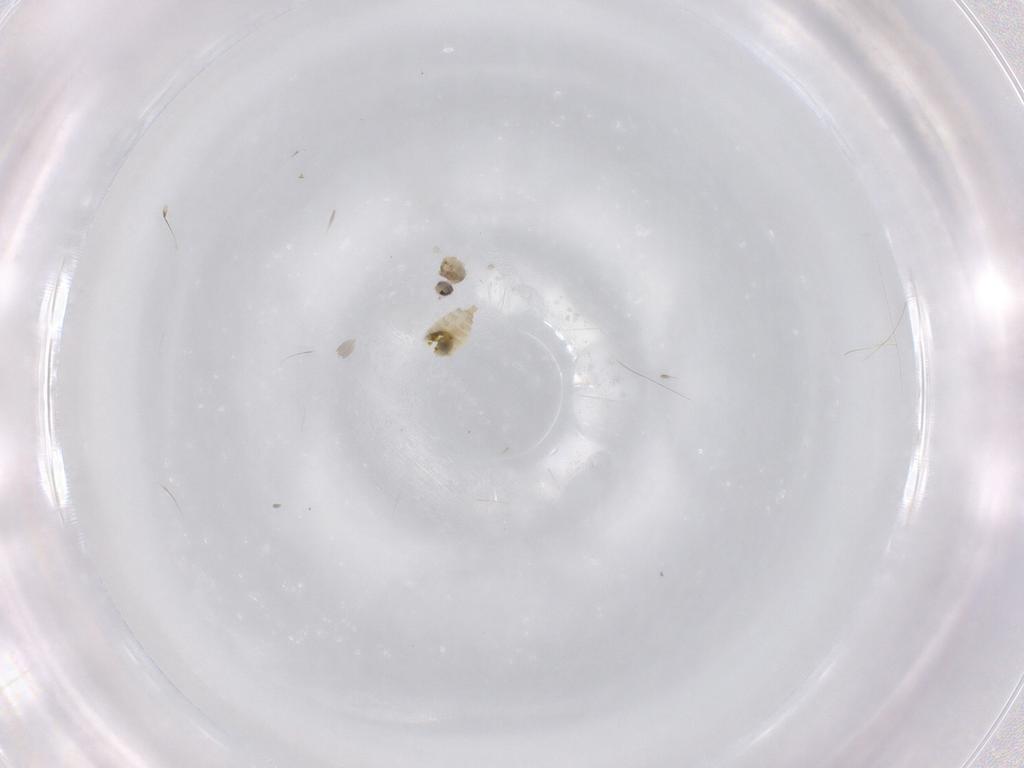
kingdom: Animalia
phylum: Arthropoda
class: Insecta
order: Diptera
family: Cecidomyiidae
